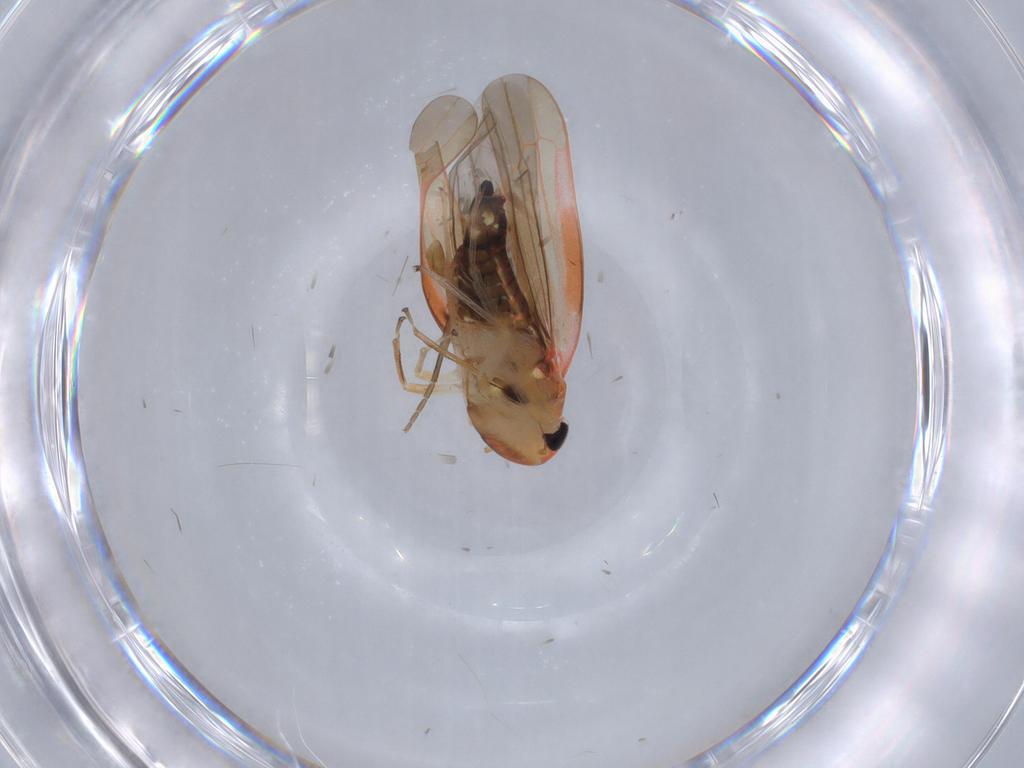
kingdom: Animalia
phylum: Arthropoda
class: Insecta
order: Hemiptera
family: Cicadellidae
